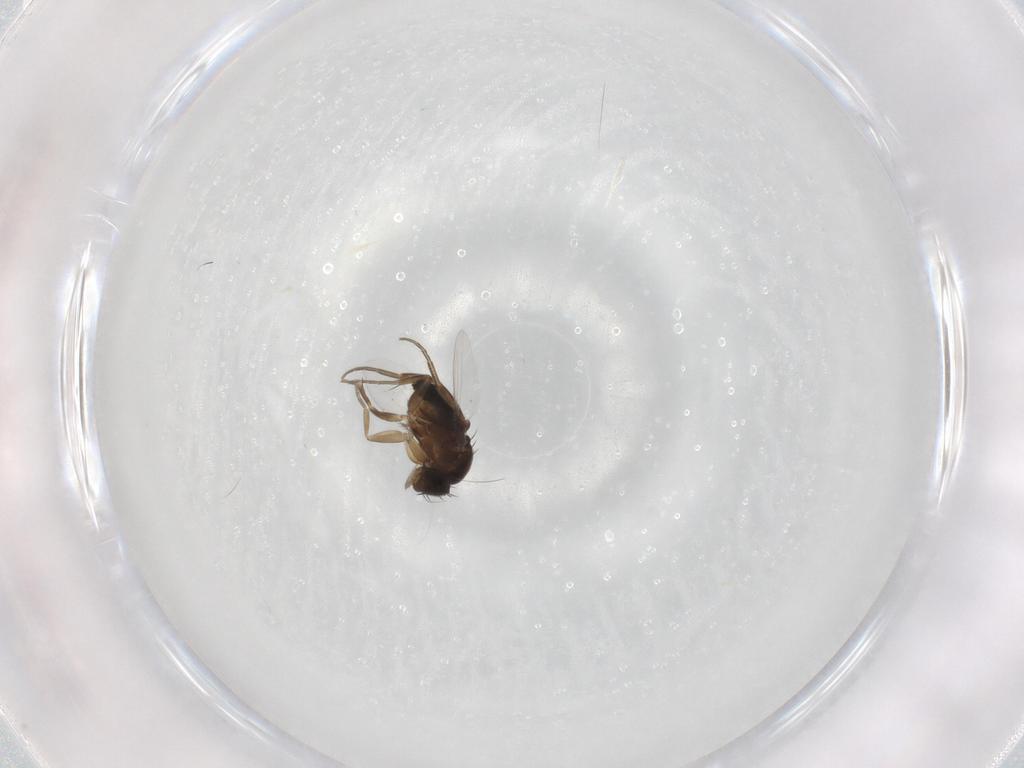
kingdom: Animalia
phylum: Arthropoda
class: Insecta
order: Diptera
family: Phoridae
